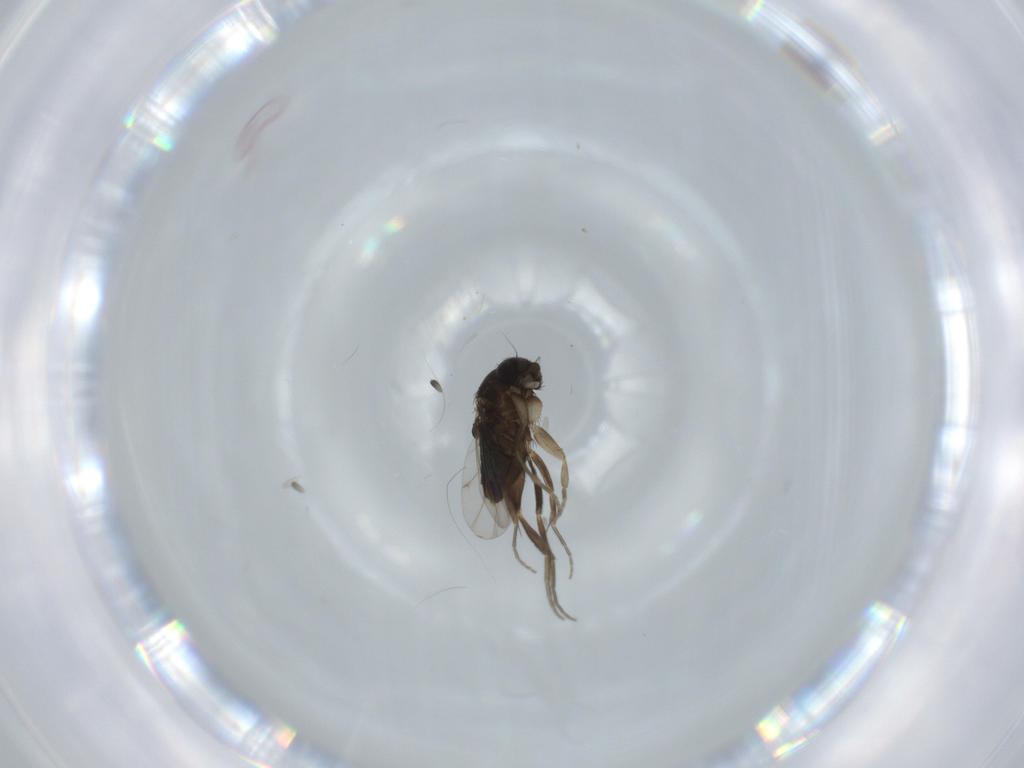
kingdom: Animalia
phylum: Arthropoda
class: Insecta
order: Diptera
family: Phoridae
